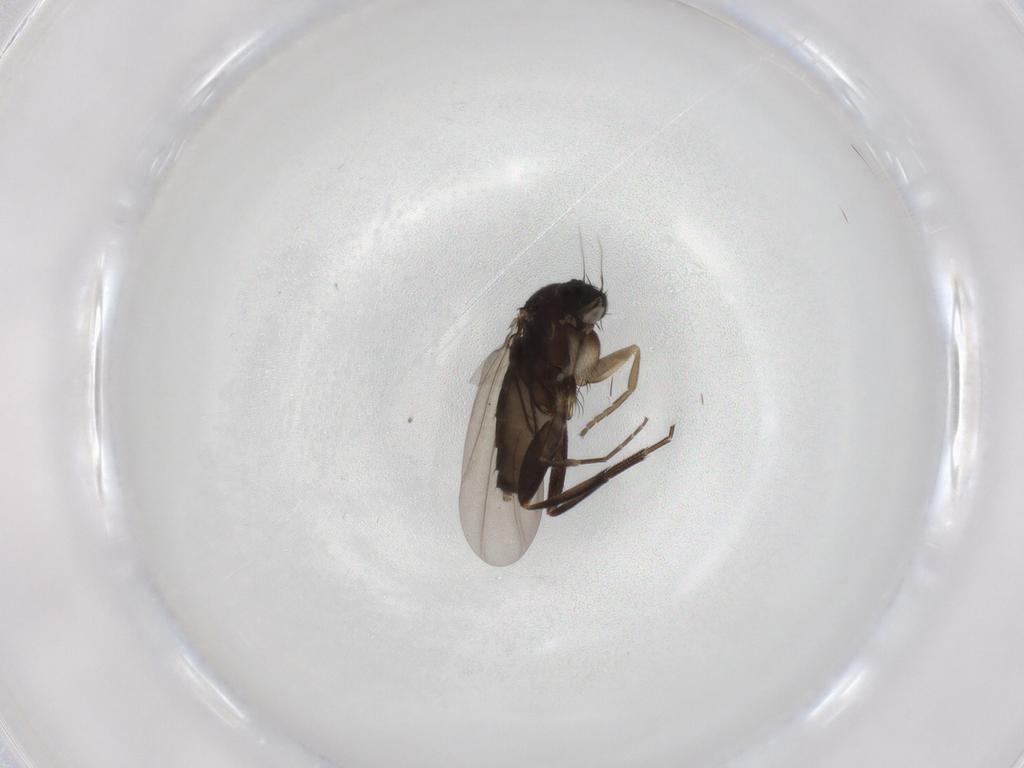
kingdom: Animalia
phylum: Arthropoda
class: Insecta
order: Diptera
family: Phoridae
